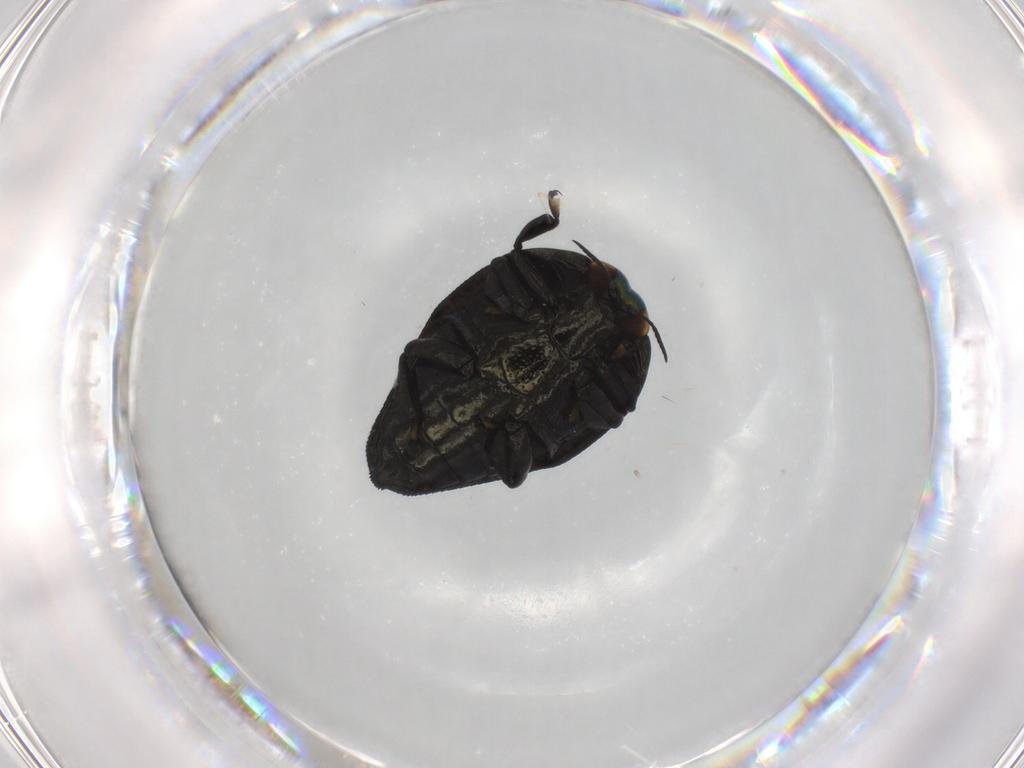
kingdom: Animalia
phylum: Arthropoda
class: Insecta
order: Coleoptera
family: Buprestidae
